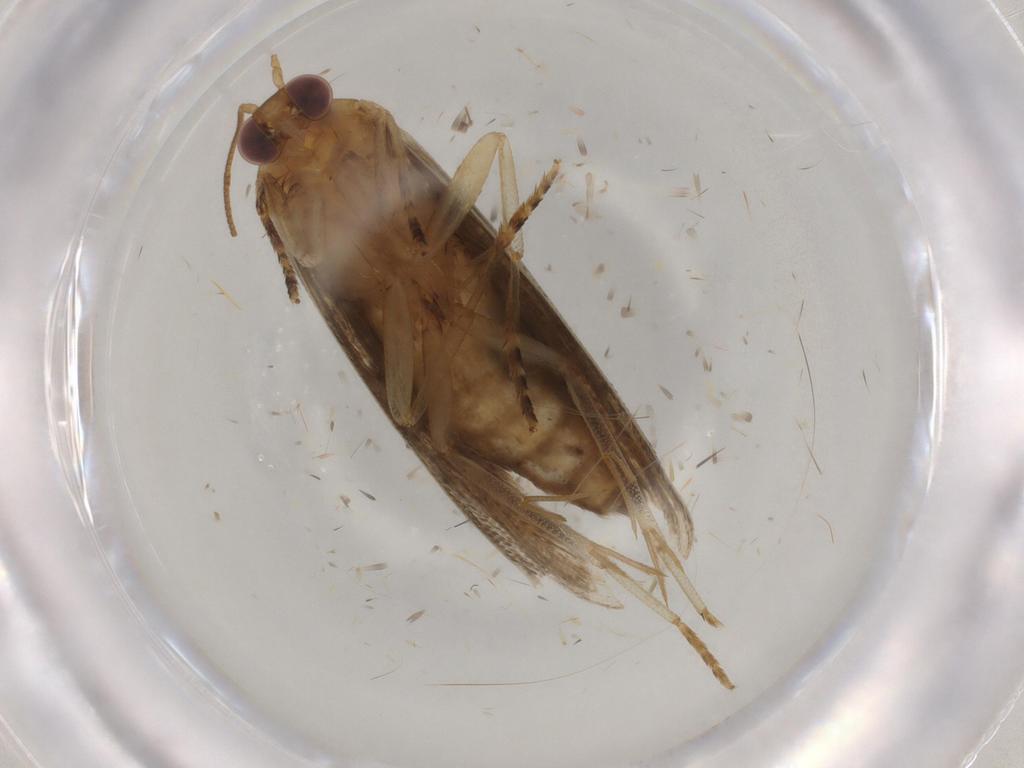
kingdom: Animalia
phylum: Arthropoda
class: Insecta
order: Lepidoptera
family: Tortricidae
